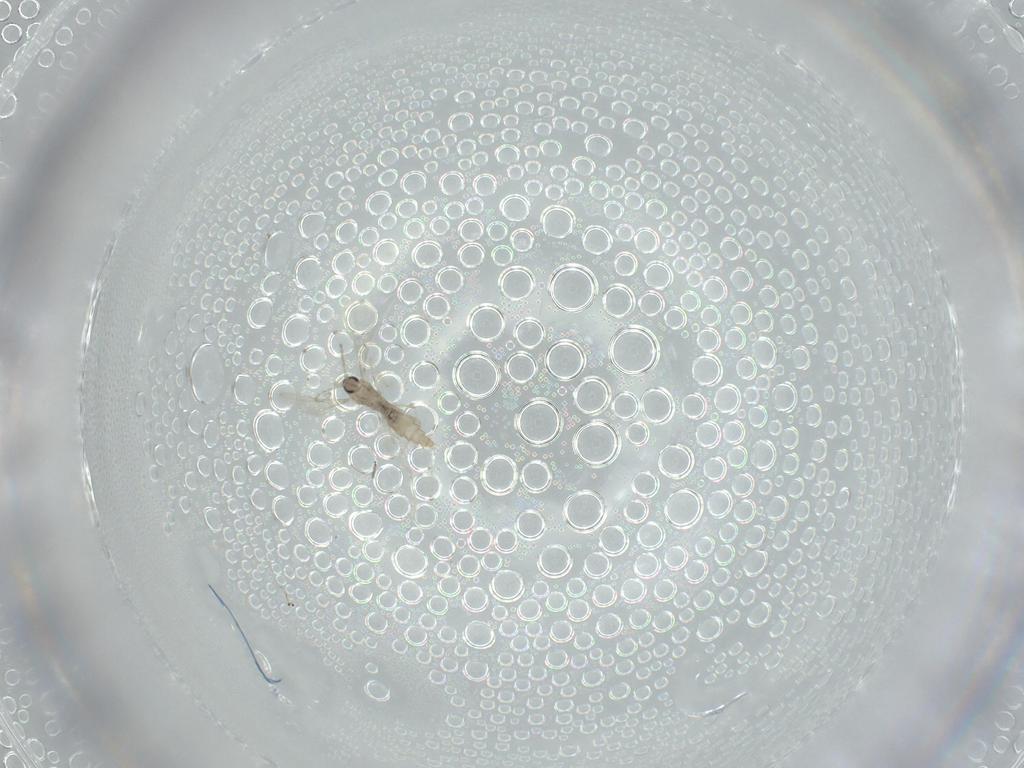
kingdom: Animalia
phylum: Arthropoda
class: Insecta
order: Diptera
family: Cecidomyiidae
